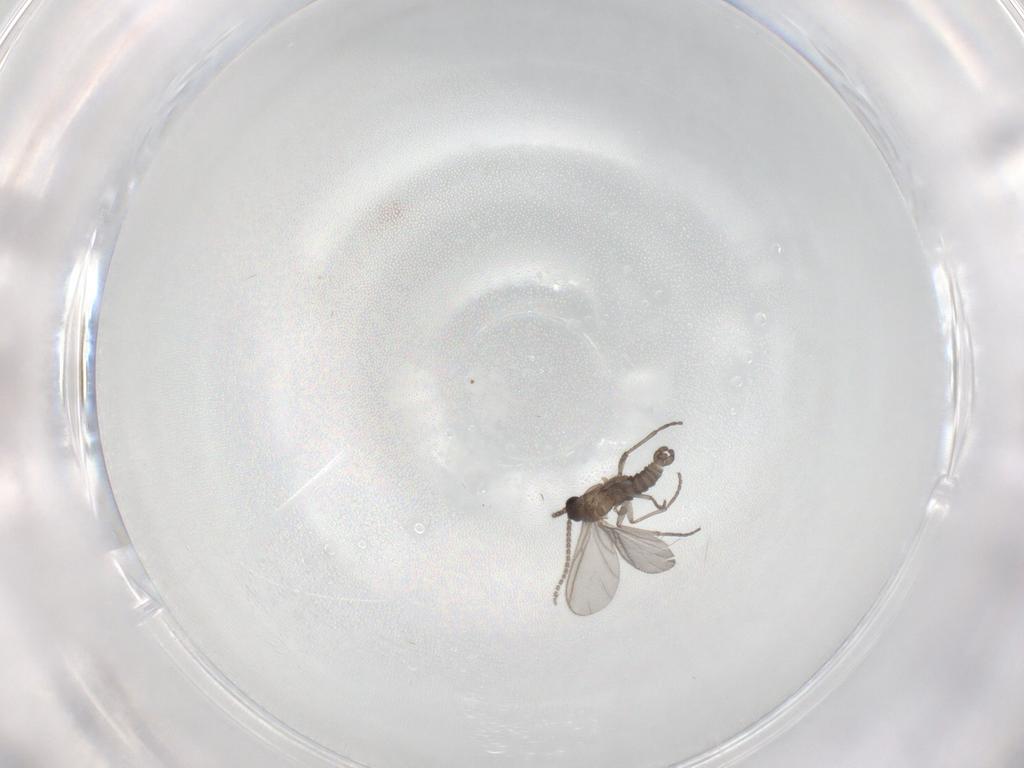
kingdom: Animalia
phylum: Arthropoda
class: Insecta
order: Diptera
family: Sciaridae
